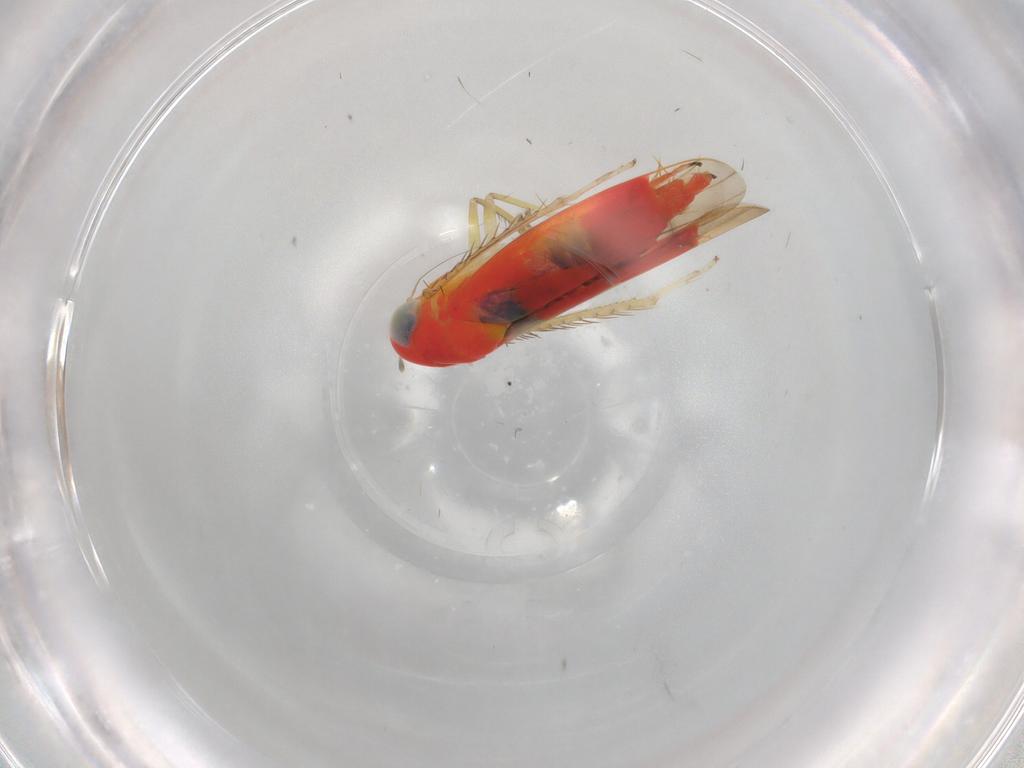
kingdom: Animalia
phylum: Arthropoda
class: Insecta
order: Hemiptera
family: Cicadellidae
